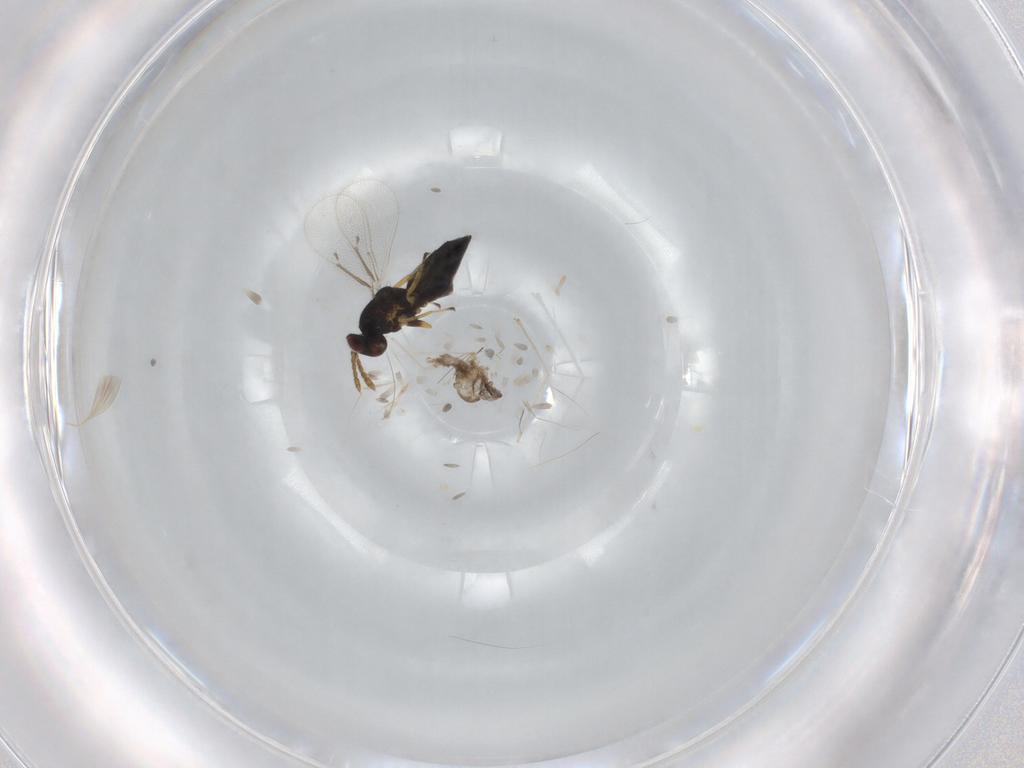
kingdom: Animalia
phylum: Arthropoda
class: Insecta
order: Hymenoptera
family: Eulophidae
